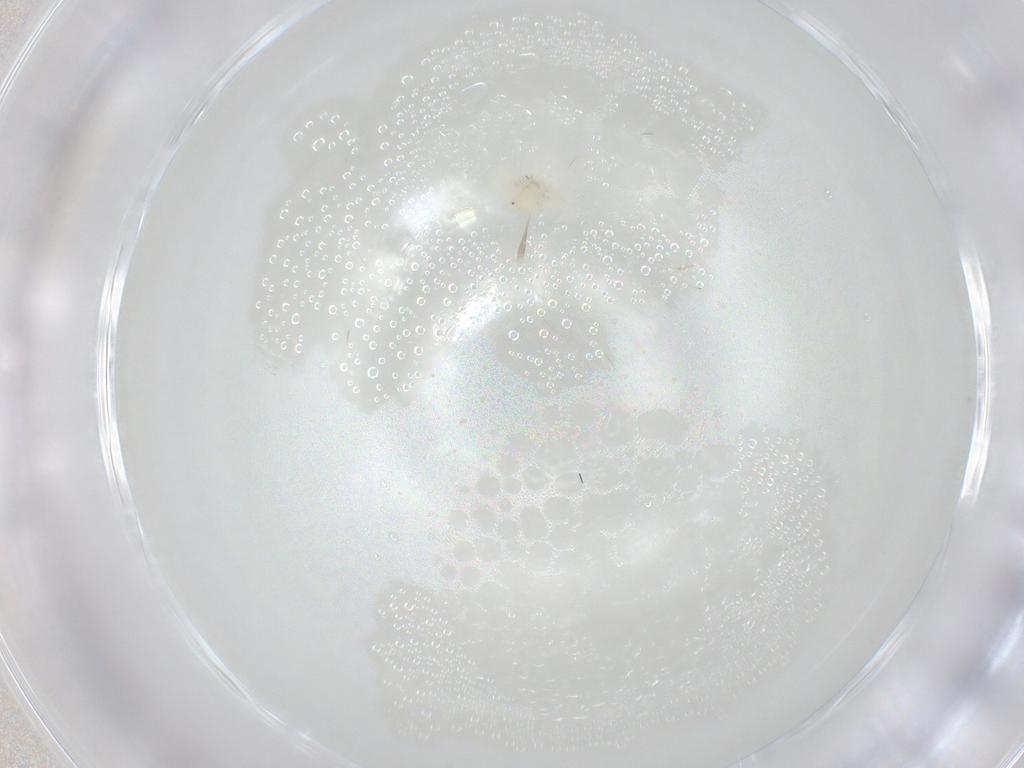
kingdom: Animalia
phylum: Arthropoda
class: Arachnida
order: Trombidiformes
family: Anystidae
